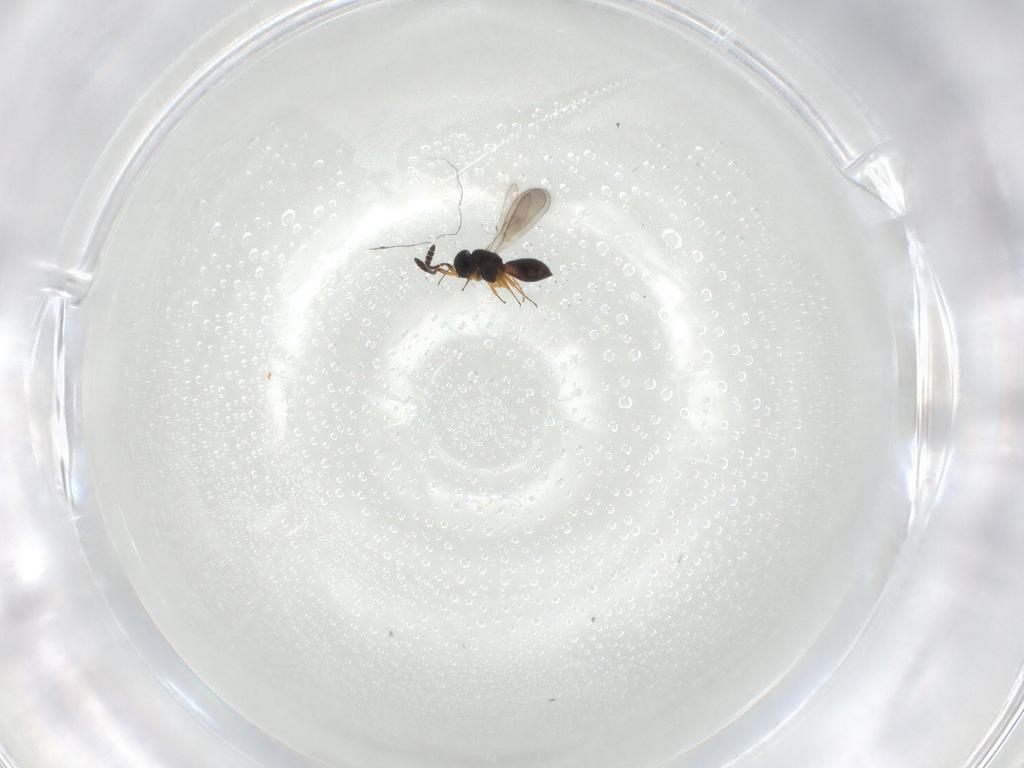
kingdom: Animalia
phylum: Arthropoda
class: Insecta
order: Hymenoptera
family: Scelionidae
